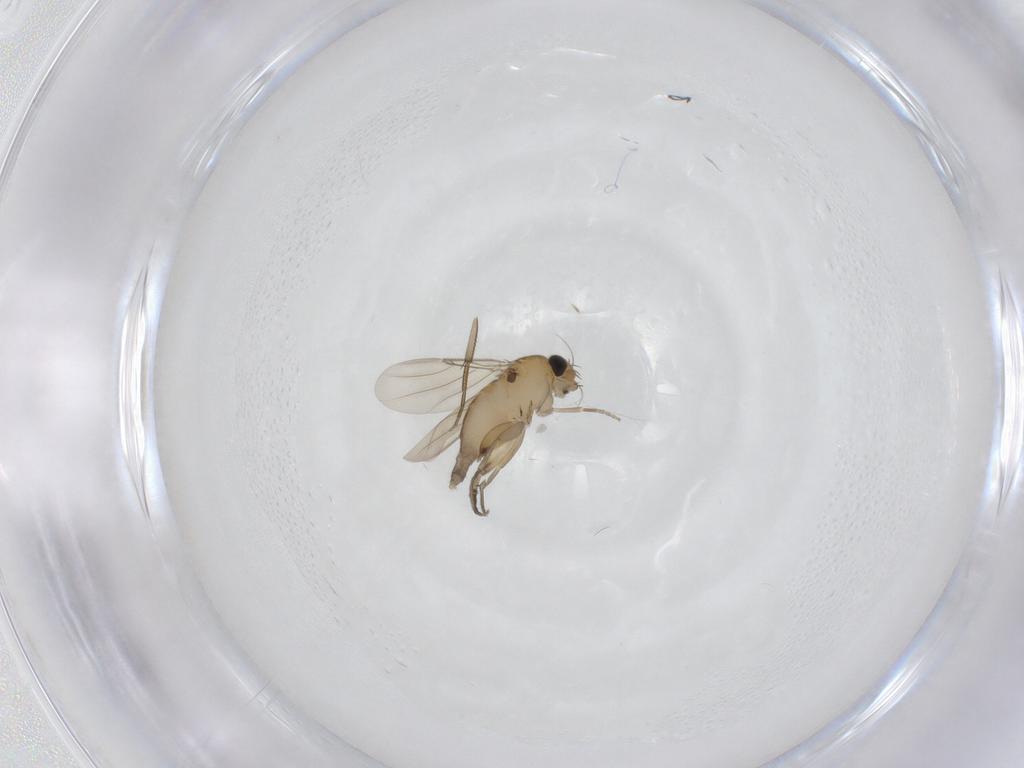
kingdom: Animalia
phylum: Arthropoda
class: Insecta
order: Diptera
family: Phoridae
